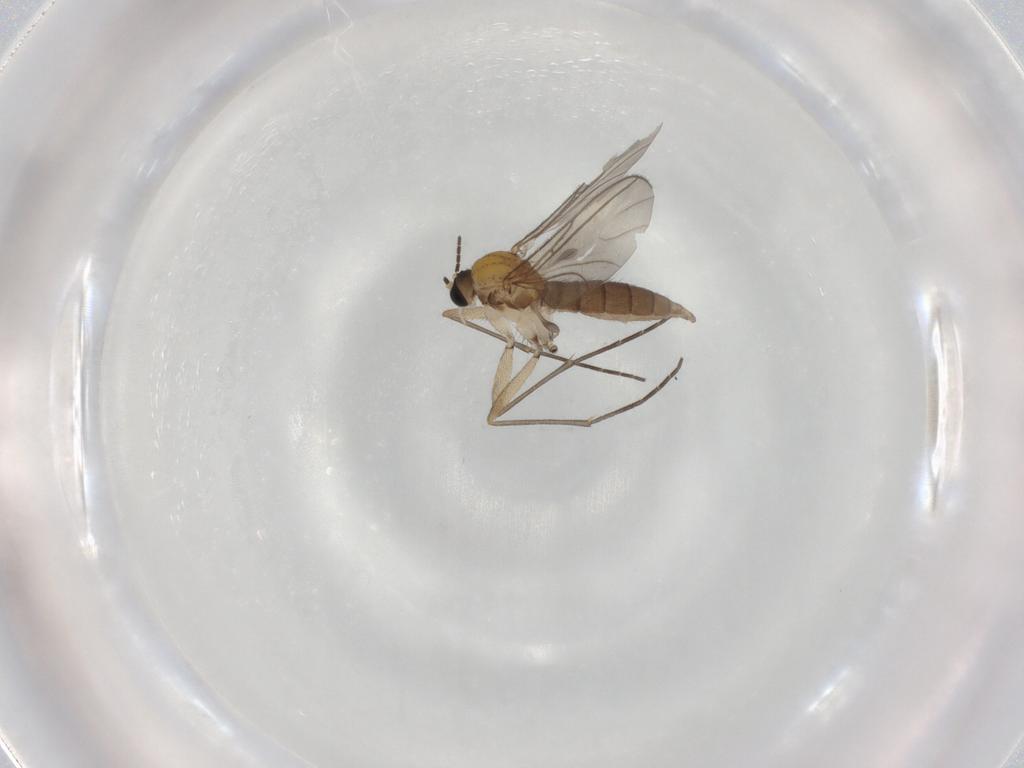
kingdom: Animalia
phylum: Arthropoda
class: Insecta
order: Diptera
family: Sciaridae
